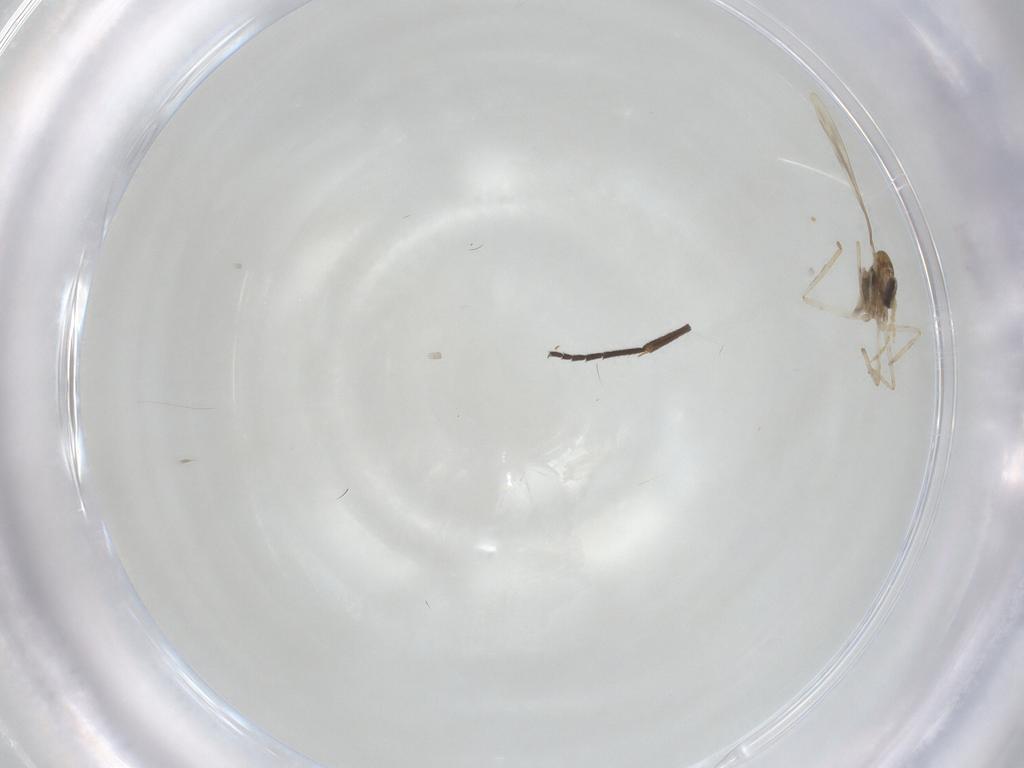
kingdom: Animalia
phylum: Arthropoda
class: Insecta
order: Diptera
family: Cecidomyiidae
